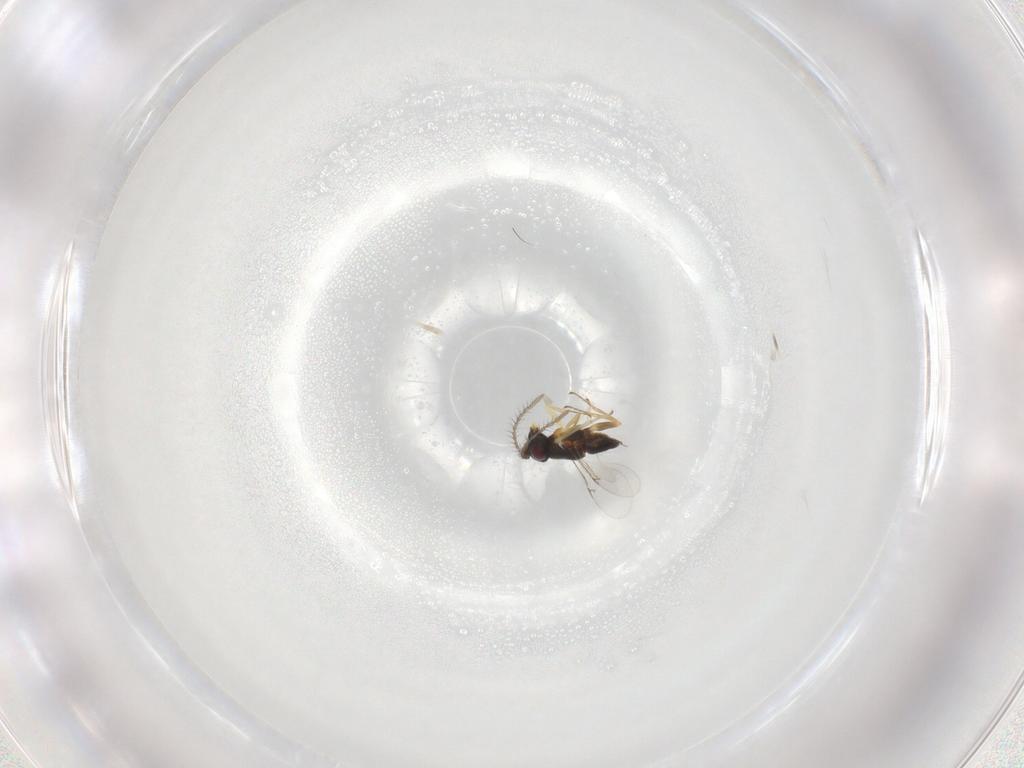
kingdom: Animalia
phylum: Arthropoda
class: Insecta
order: Hymenoptera
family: Encyrtidae
